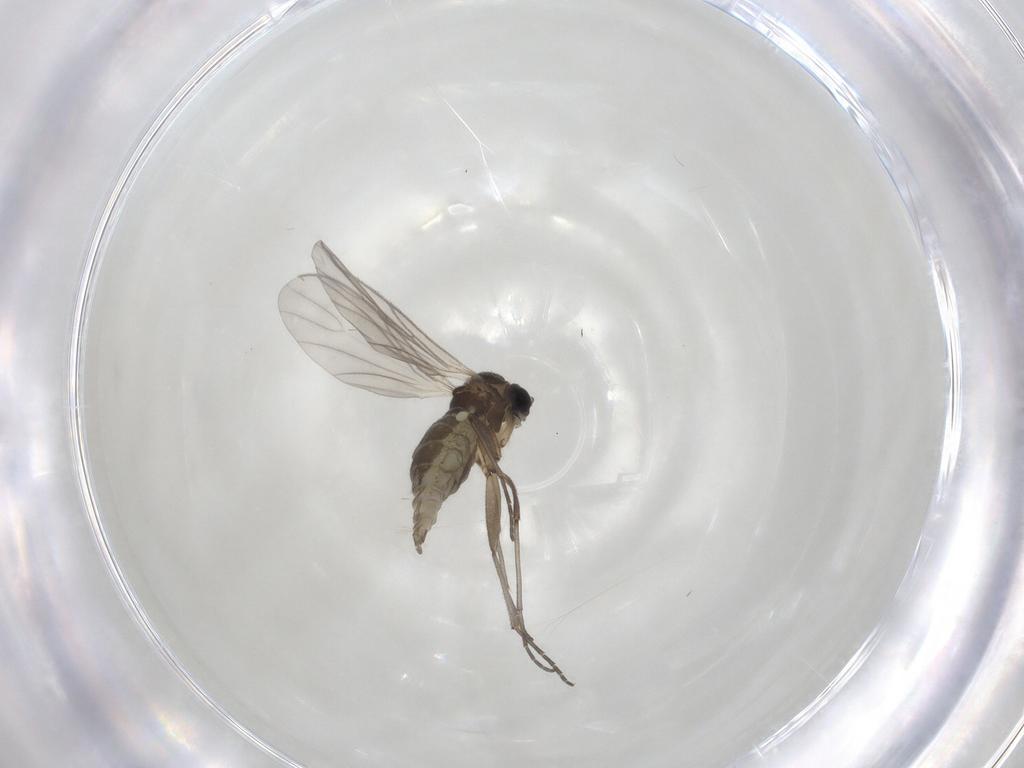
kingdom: Animalia
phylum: Arthropoda
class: Insecta
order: Diptera
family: Mycetophilidae
